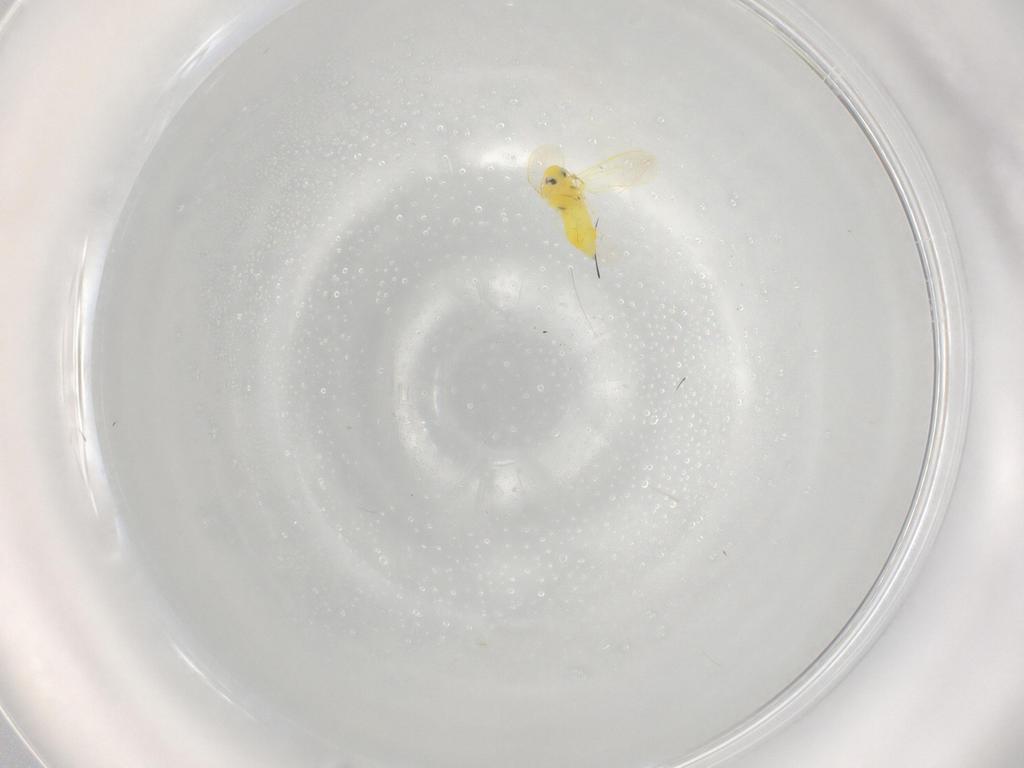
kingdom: Animalia
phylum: Arthropoda
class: Insecta
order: Hemiptera
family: Aleyrodidae
